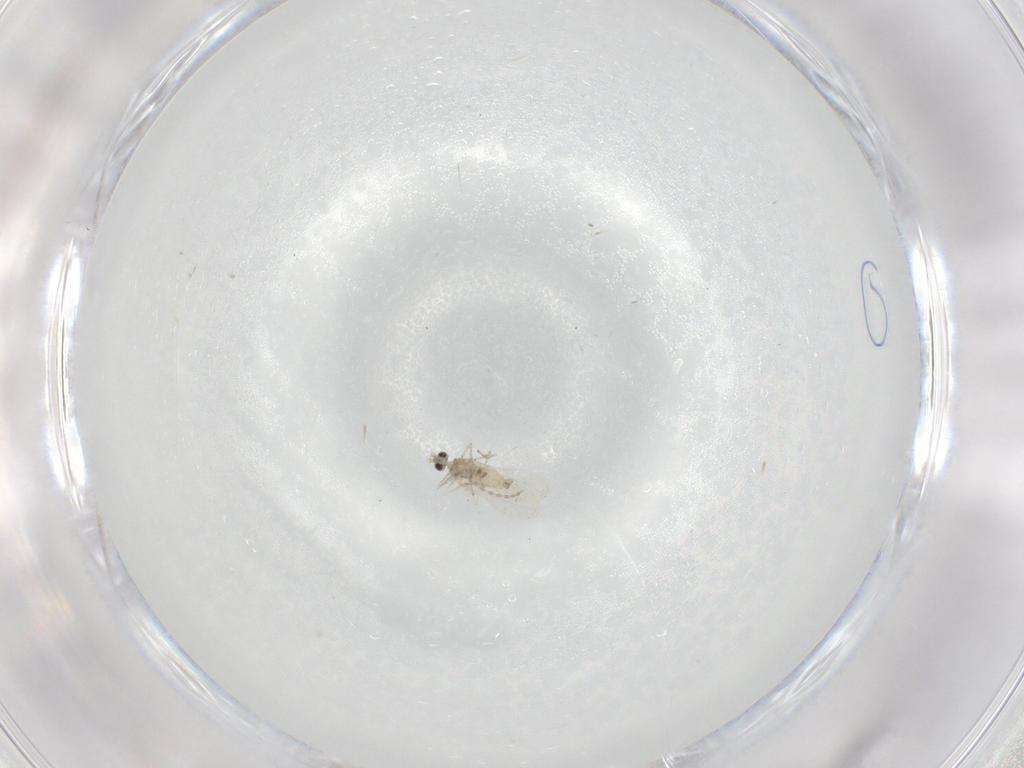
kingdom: Animalia
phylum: Arthropoda
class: Insecta
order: Diptera
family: Cecidomyiidae
